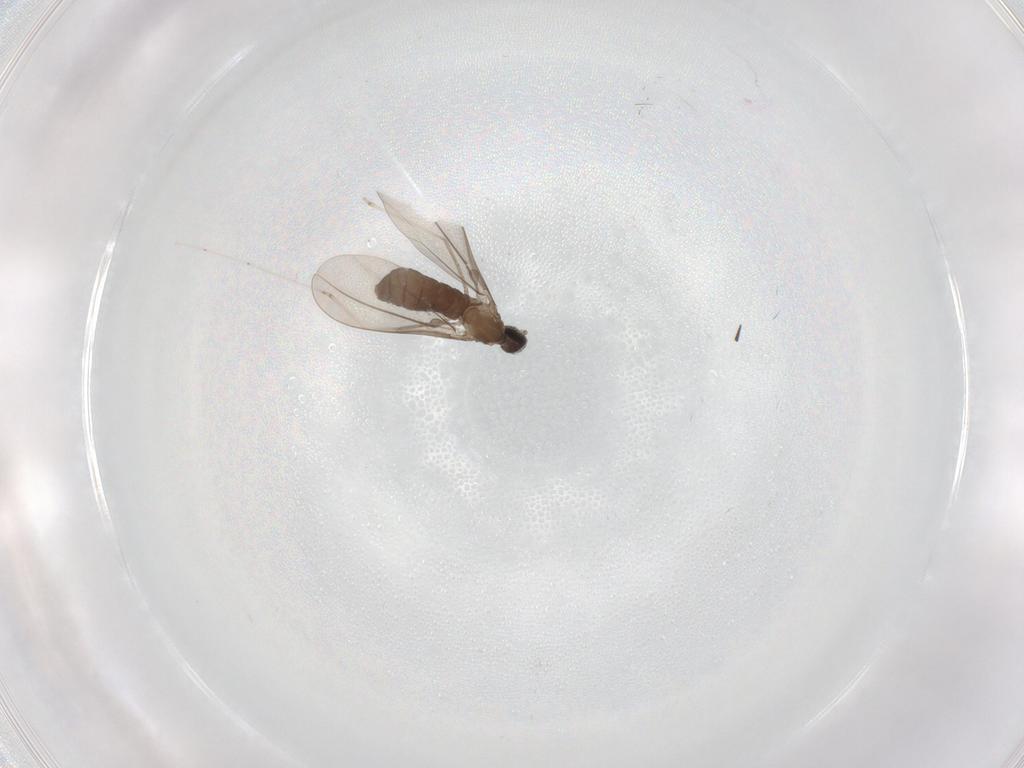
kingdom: Animalia
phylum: Arthropoda
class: Insecta
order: Diptera
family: Cecidomyiidae
